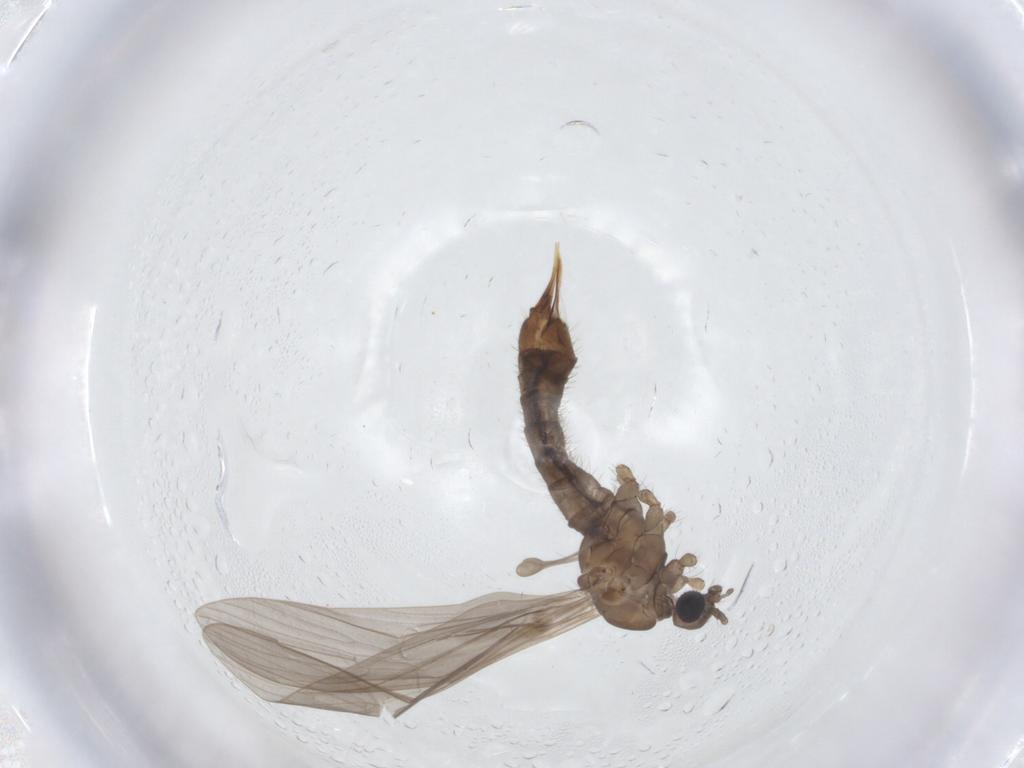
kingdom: Animalia
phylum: Arthropoda
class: Insecta
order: Diptera
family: Limoniidae
